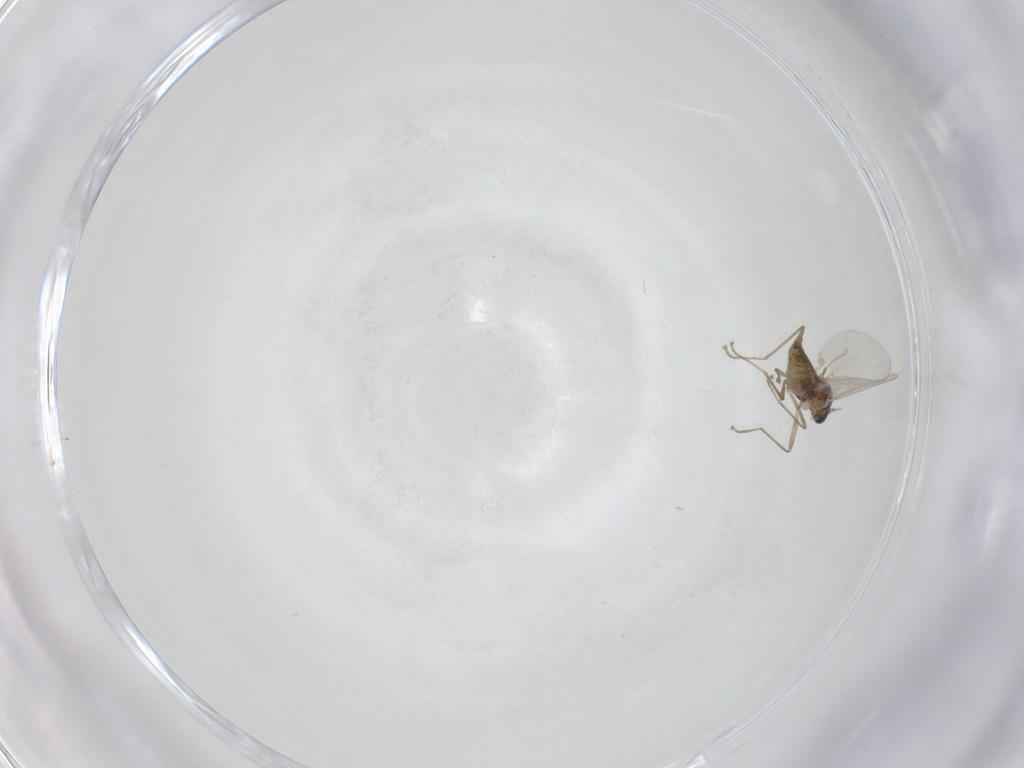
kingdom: Animalia
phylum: Arthropoda
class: Insecta
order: Diptera
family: Cecidomyiidae
